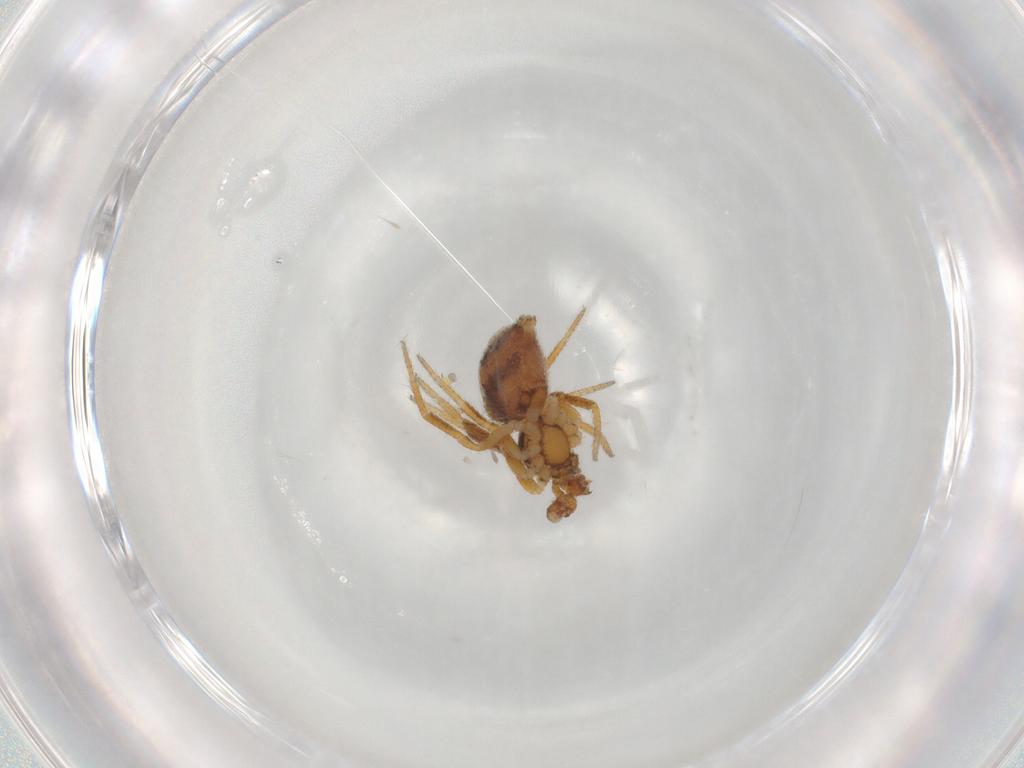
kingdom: Animalia
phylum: Arthropoda
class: Arachnida
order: Araneae
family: Theridiidae
